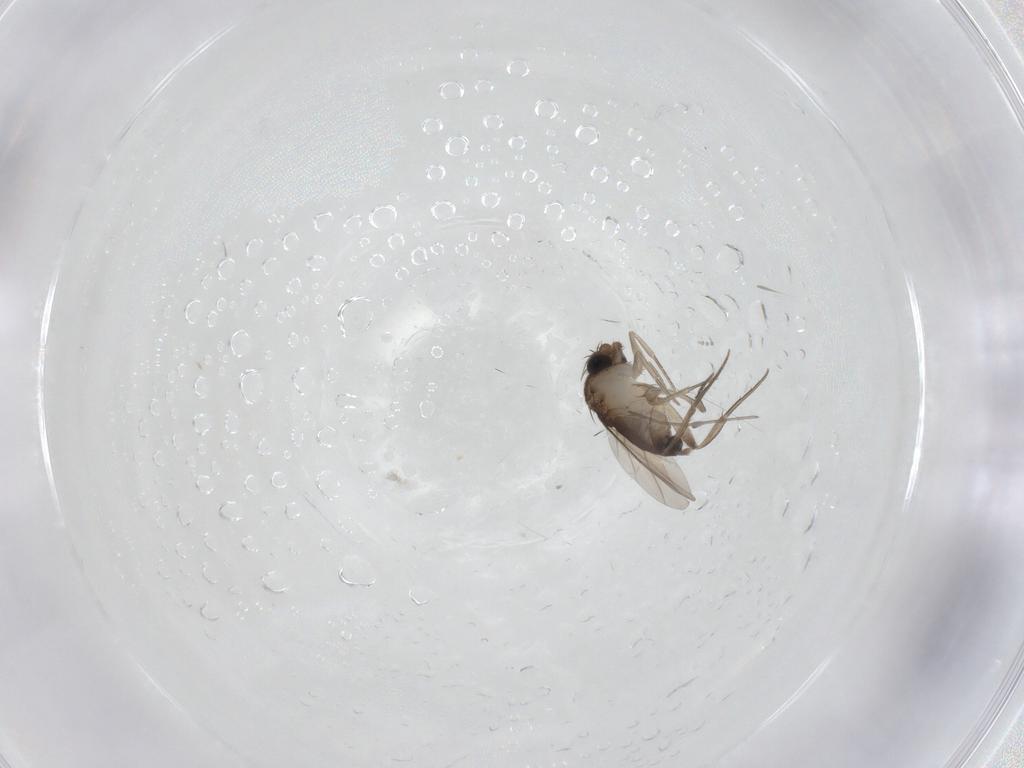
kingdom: Animalia
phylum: Arthropoda
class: Insecta
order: Diptera
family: Phoridae
